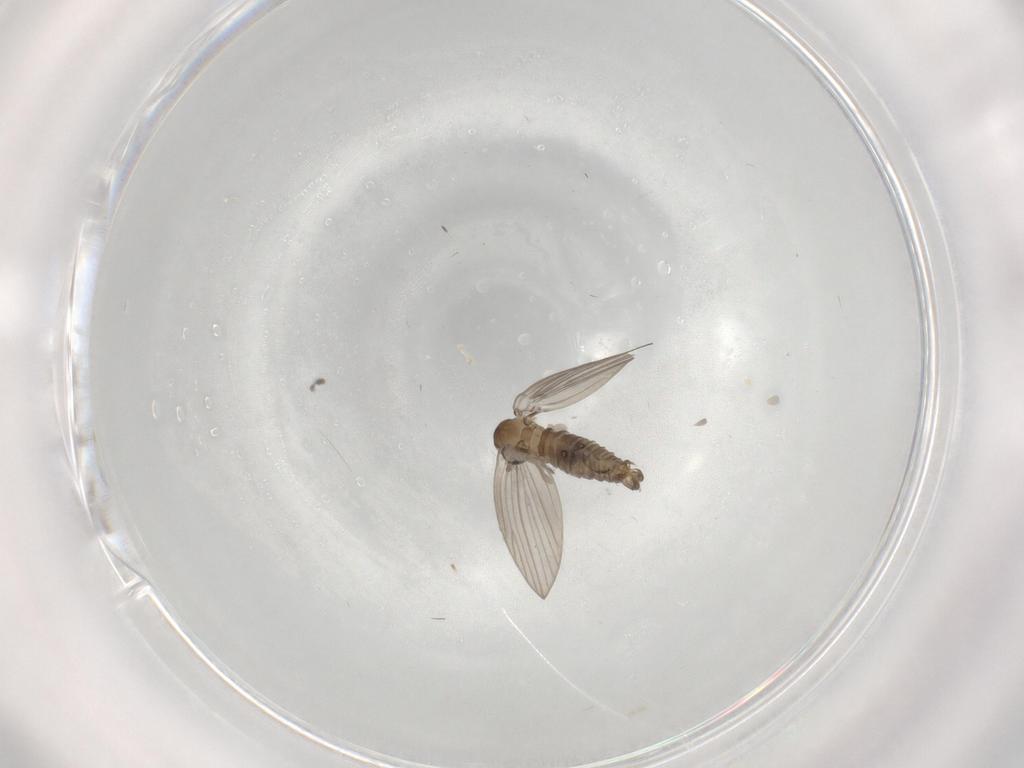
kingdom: Animalia
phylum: Arthropoda
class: Insecta
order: Diptera
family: Psychodidae
